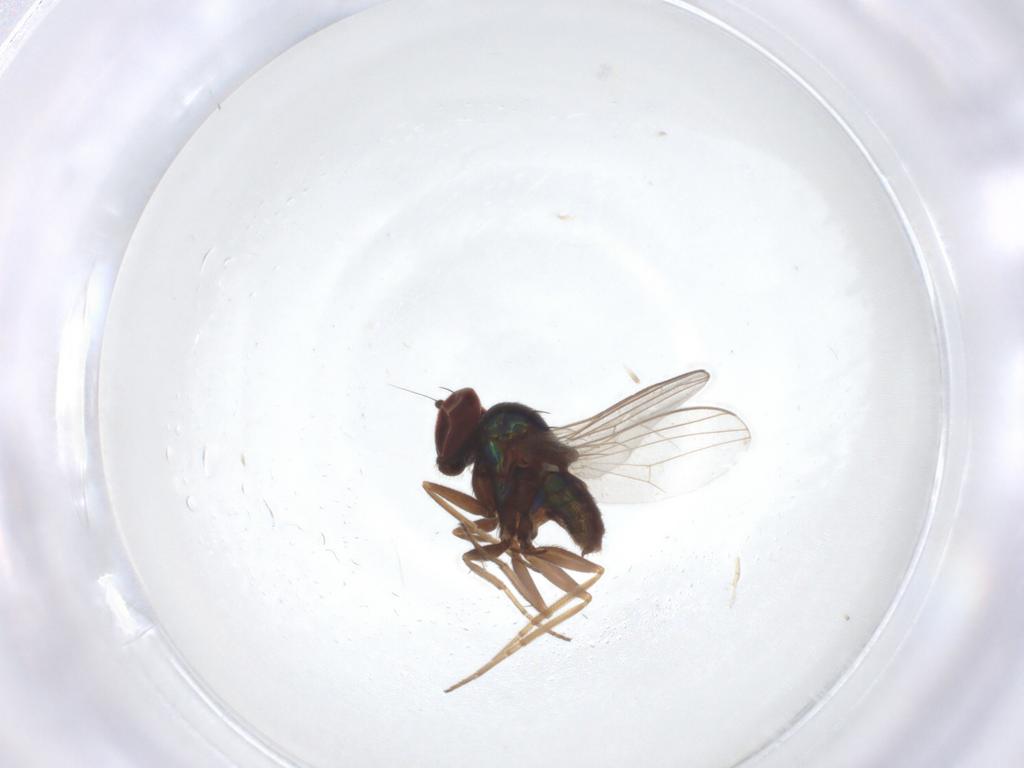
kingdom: Animalia
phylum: Arthropoda
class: Insecta
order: Diptera
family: Dolichopodidae
